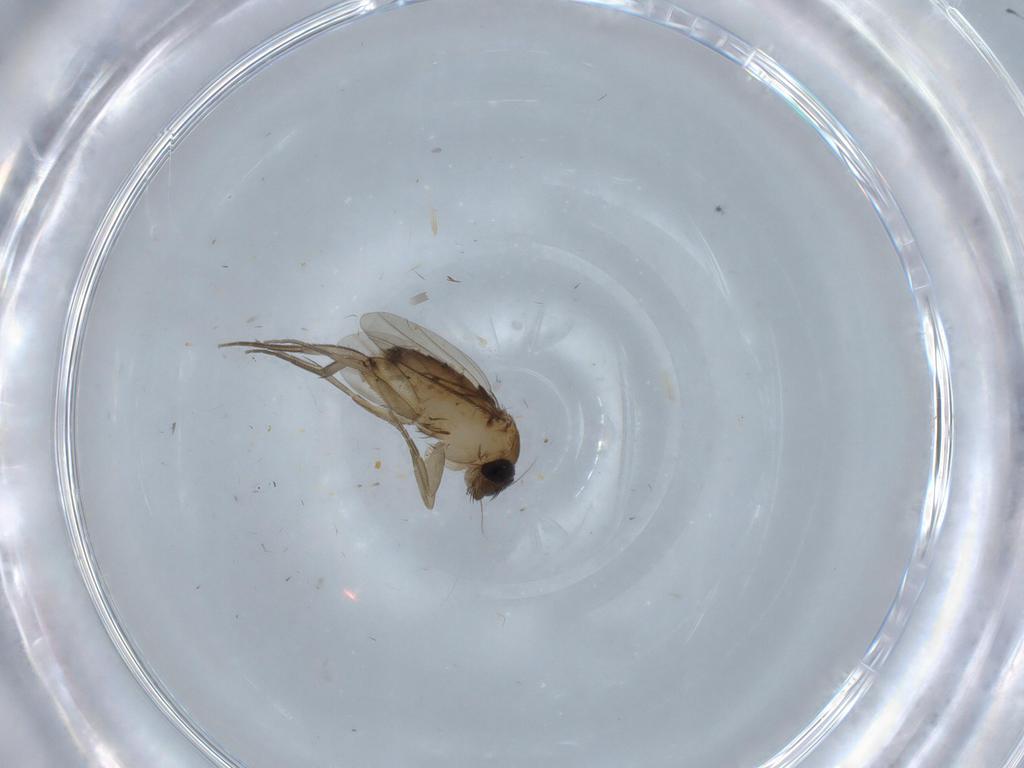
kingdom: Animalia
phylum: Arthropoda
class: Insecta
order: Diptera
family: Phoridae
